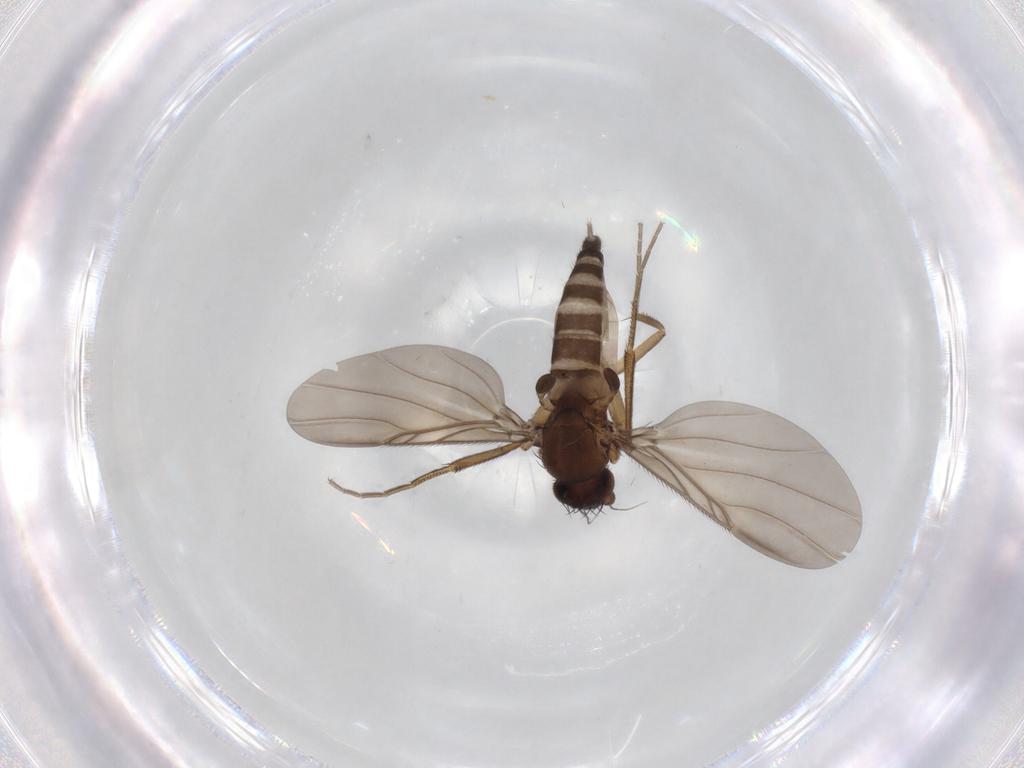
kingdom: Animalia
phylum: Arthropoda
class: Insecta
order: Diptera
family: Phoridae
